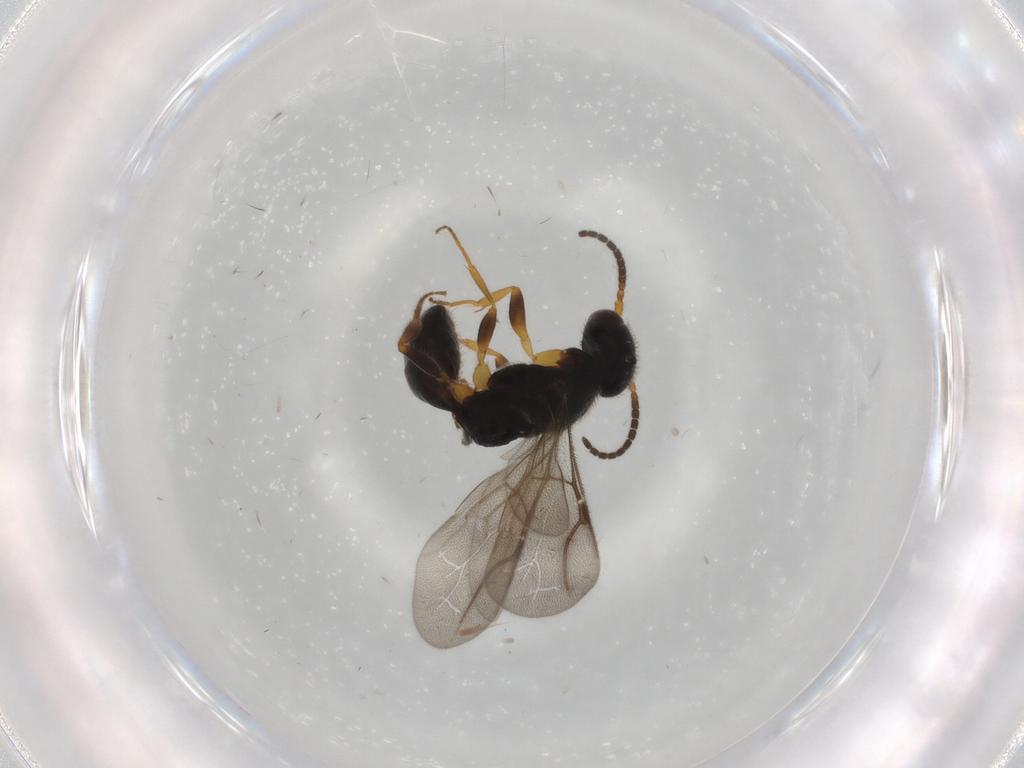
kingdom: Animalia
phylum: Arthropoda
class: Insecta
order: Hymenoptera
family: Bethylidae
